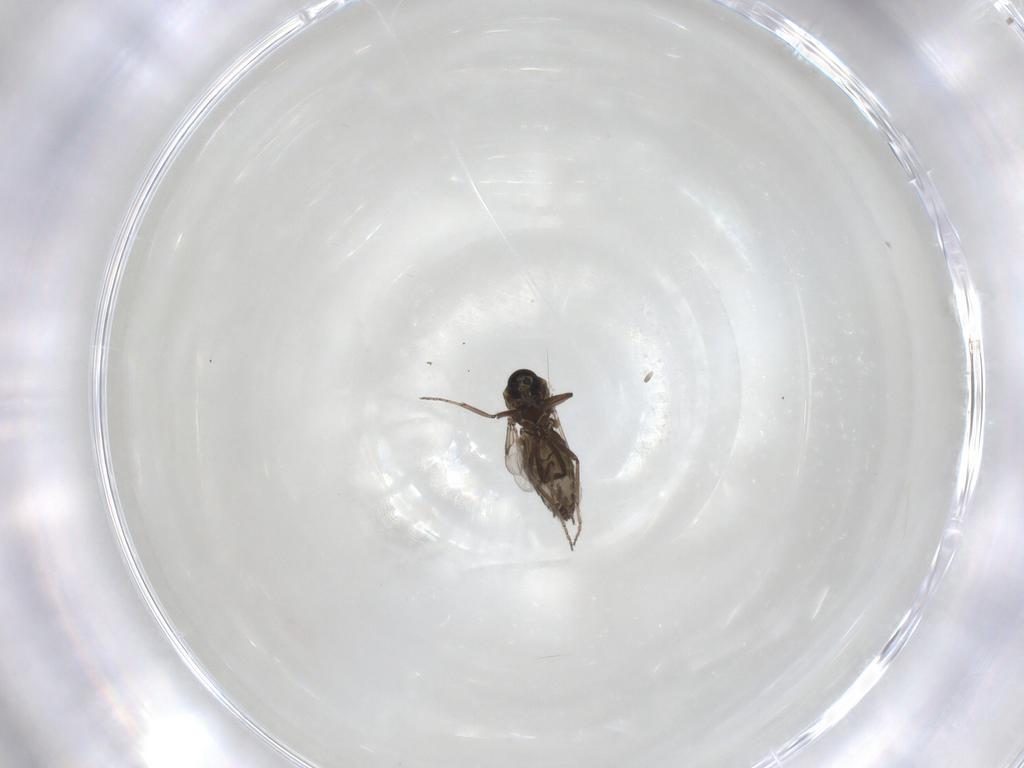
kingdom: Animalia
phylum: Arthropoda
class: Insecta
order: Diptera
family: Ceratopogonidae
